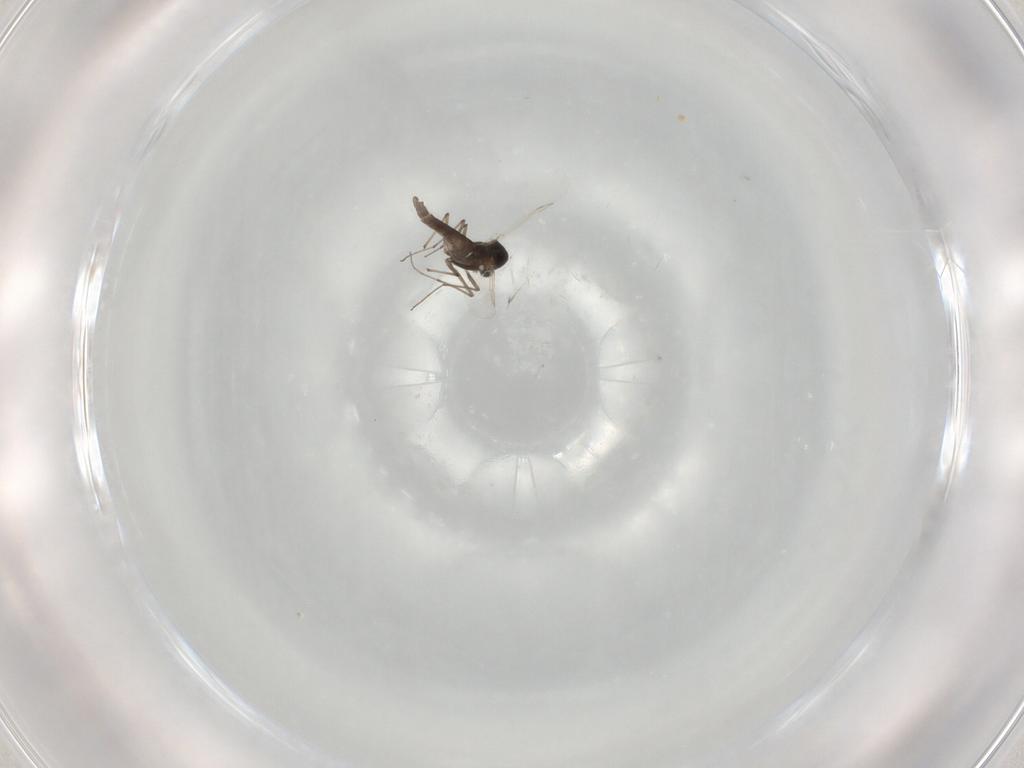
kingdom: Animalia
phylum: Arthropoda
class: Insecta
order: Diptera
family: Chironomidae
